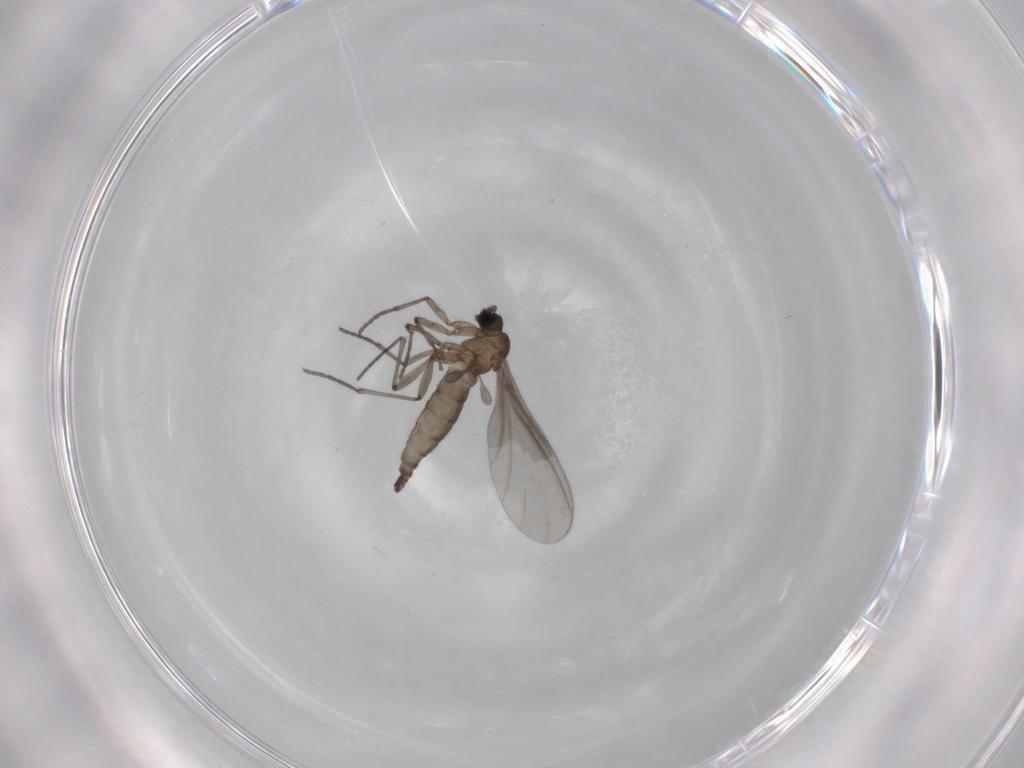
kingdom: Animalia
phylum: Arthropoda
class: Insecta
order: Diptera
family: Sciaridae
